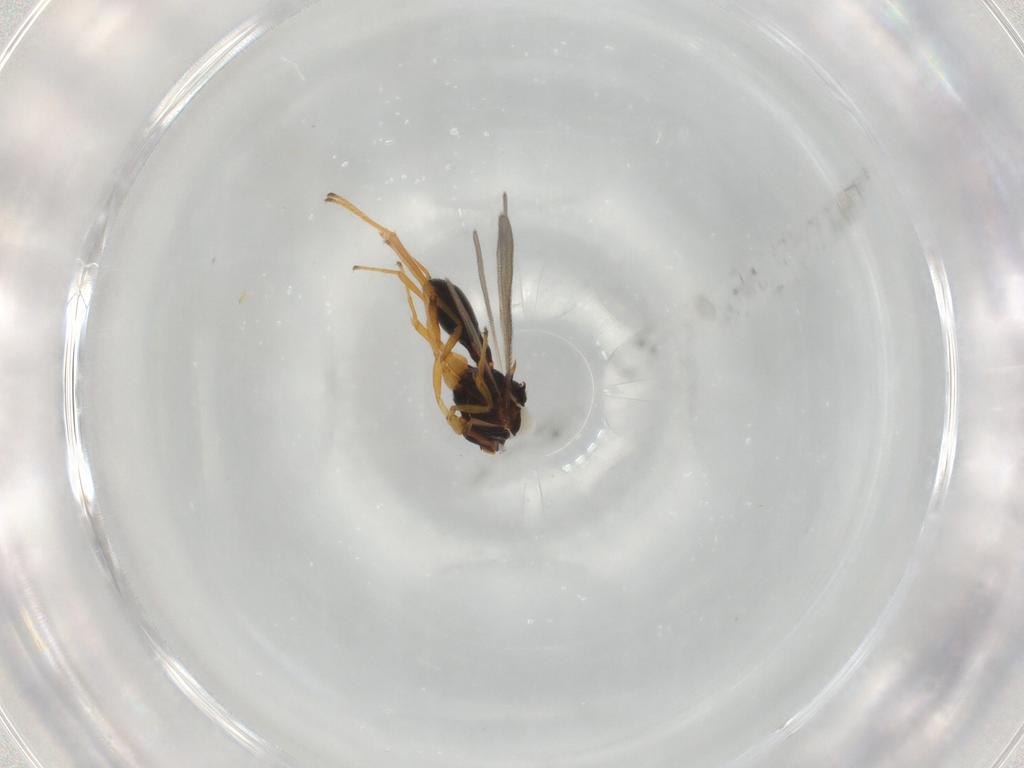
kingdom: Animalia
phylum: Arthropoda
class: Insecta
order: Hymenoptera
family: Scelionidae
